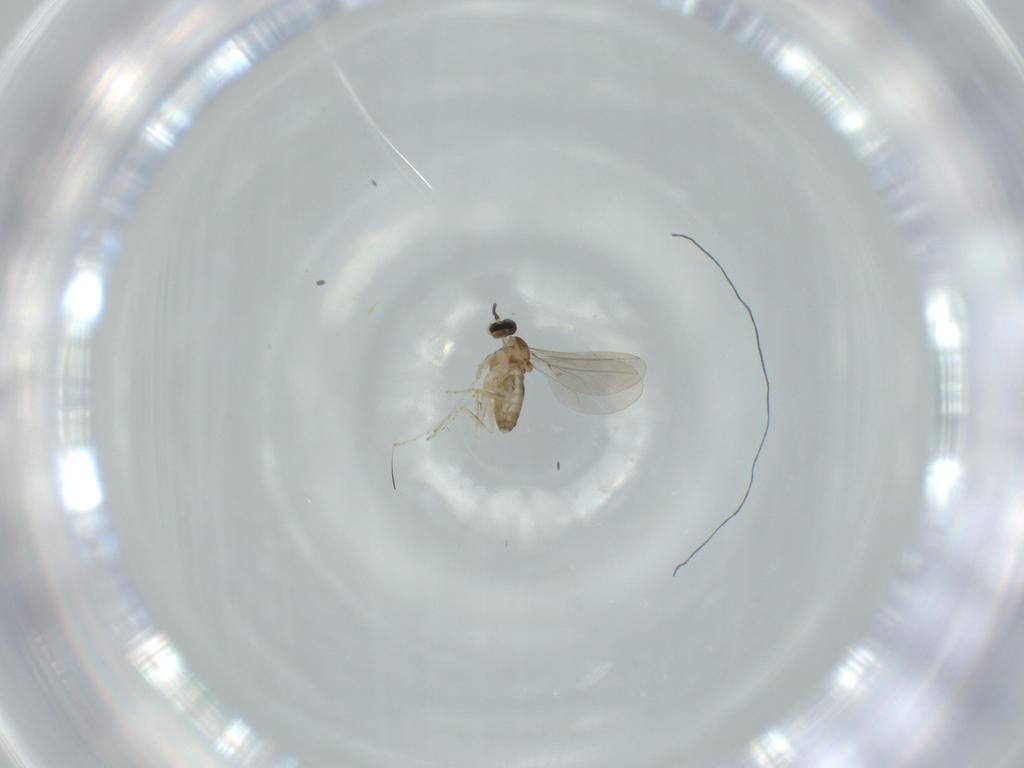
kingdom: Animalia
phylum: Arthropoda
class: Insecta
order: Diptera
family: Cecidomyiidae
